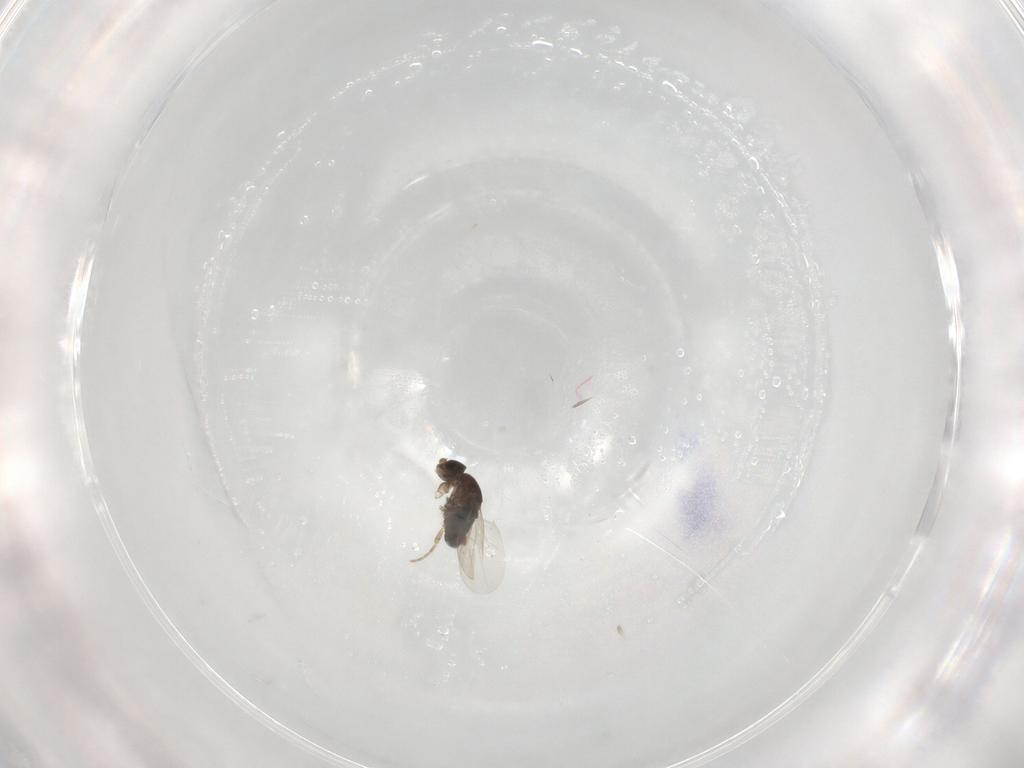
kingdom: Animalia
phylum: Arthropoda
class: Insecta
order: Diptera
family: Phoridae
